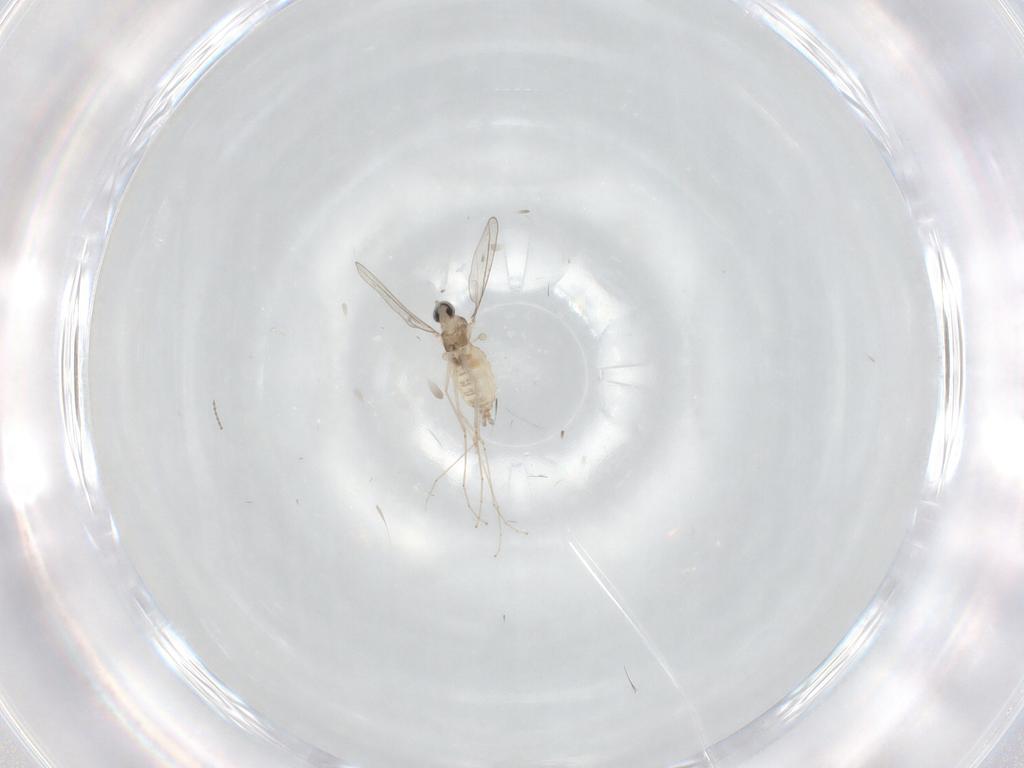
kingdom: Animalia
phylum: Arthropoda
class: Insecta
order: Diptera
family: Cecidomyiidae
